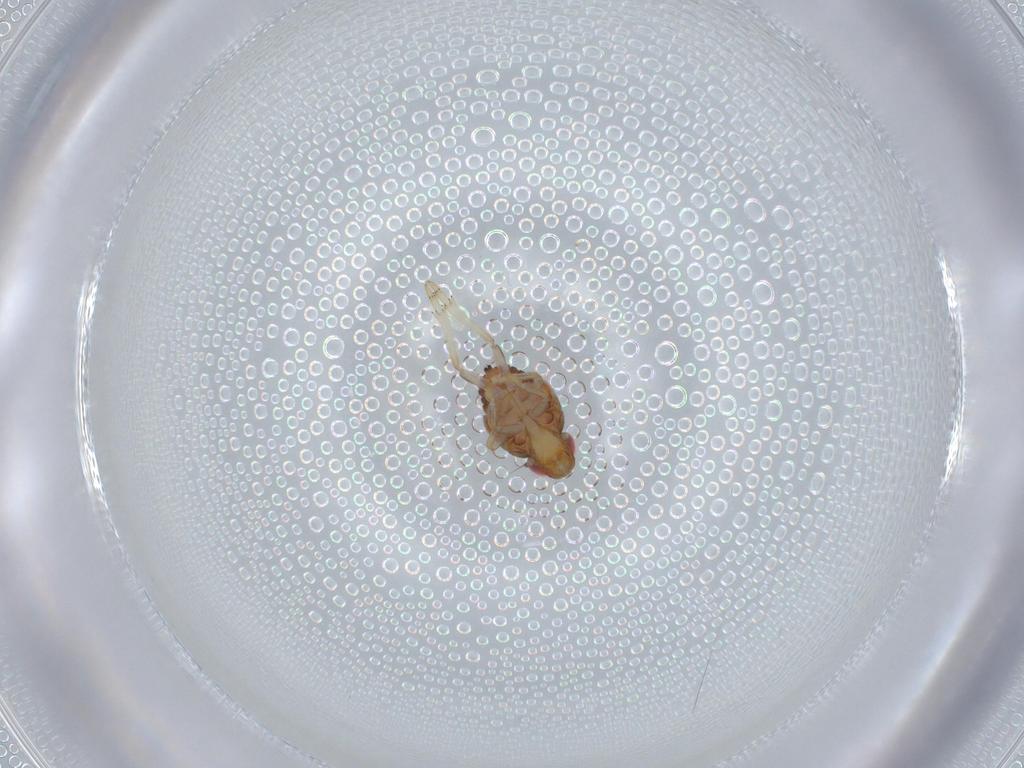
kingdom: Animalia
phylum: Arthropoda
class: Insecta
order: Hemiptera
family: Issidae
